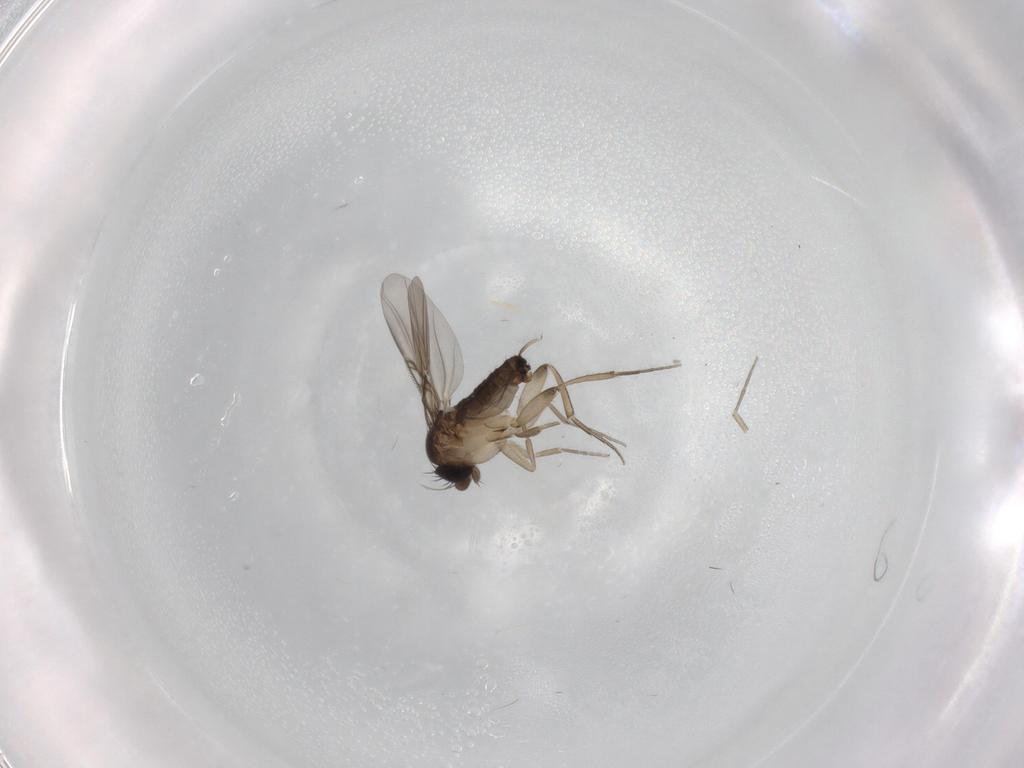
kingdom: Animalia
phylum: Arthropoda
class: Insecta
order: Diptera
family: Phoridae
